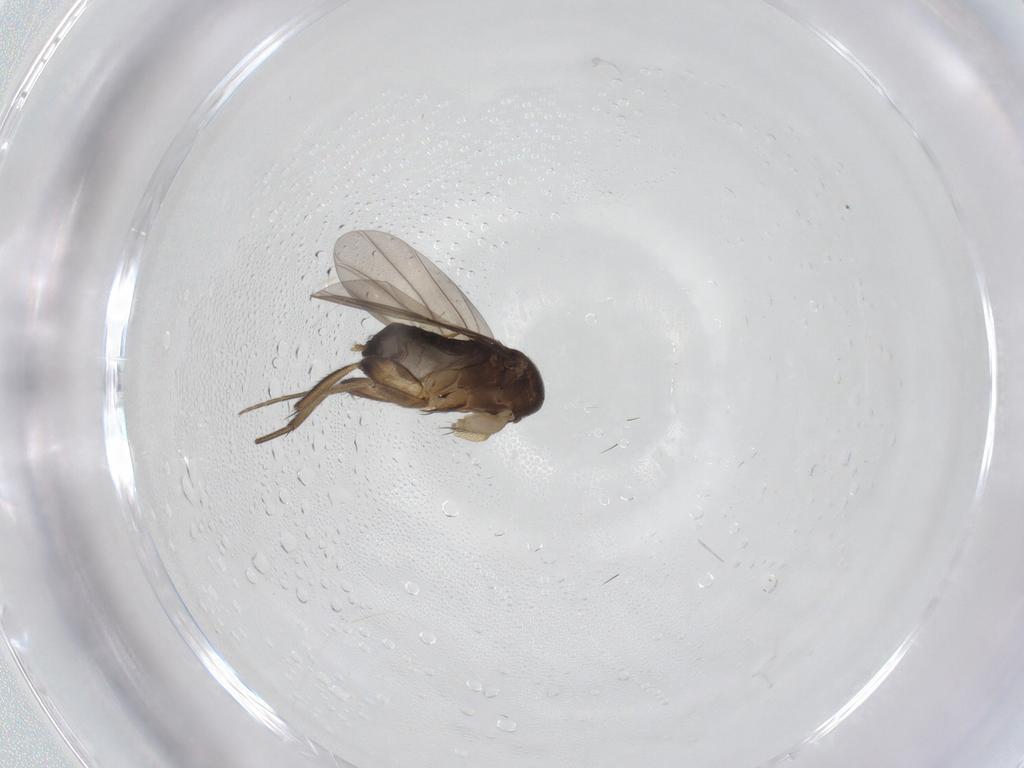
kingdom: Animalia
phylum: Arthropoda
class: Insecta
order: Diptera
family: Phoridae
